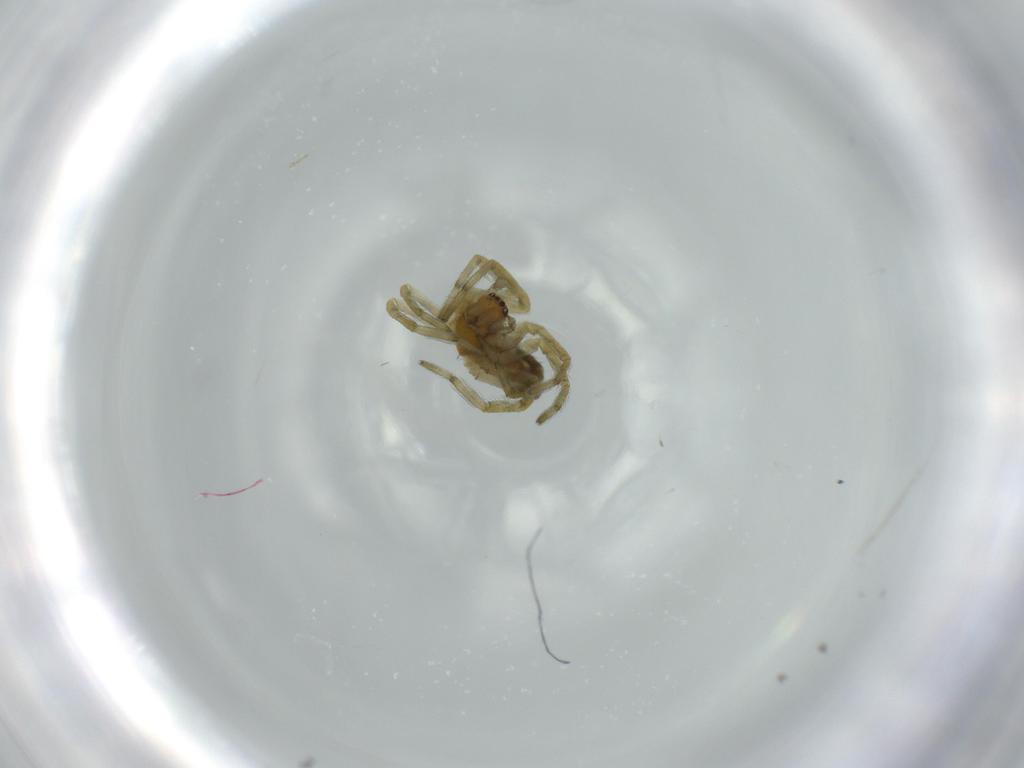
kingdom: Animalia
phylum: Arthropoda
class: Arachnida
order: Araneae
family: Dictynidae
